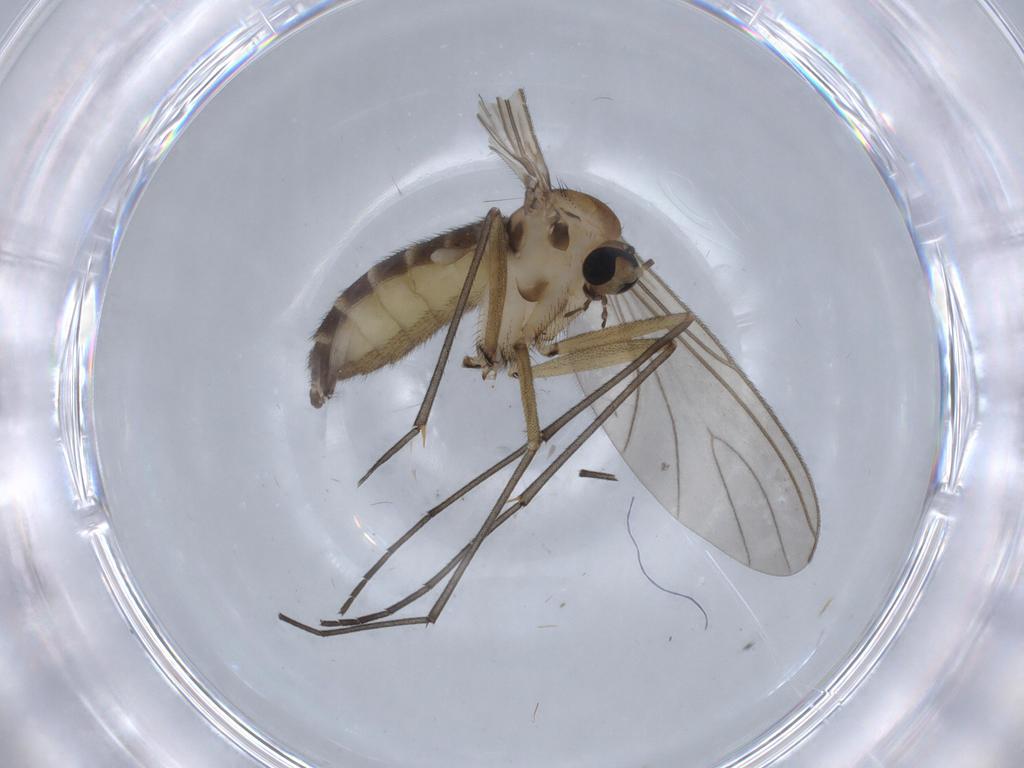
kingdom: Animalia
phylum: Arthropoda
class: Insecta
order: Diptera
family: Sciaridae
